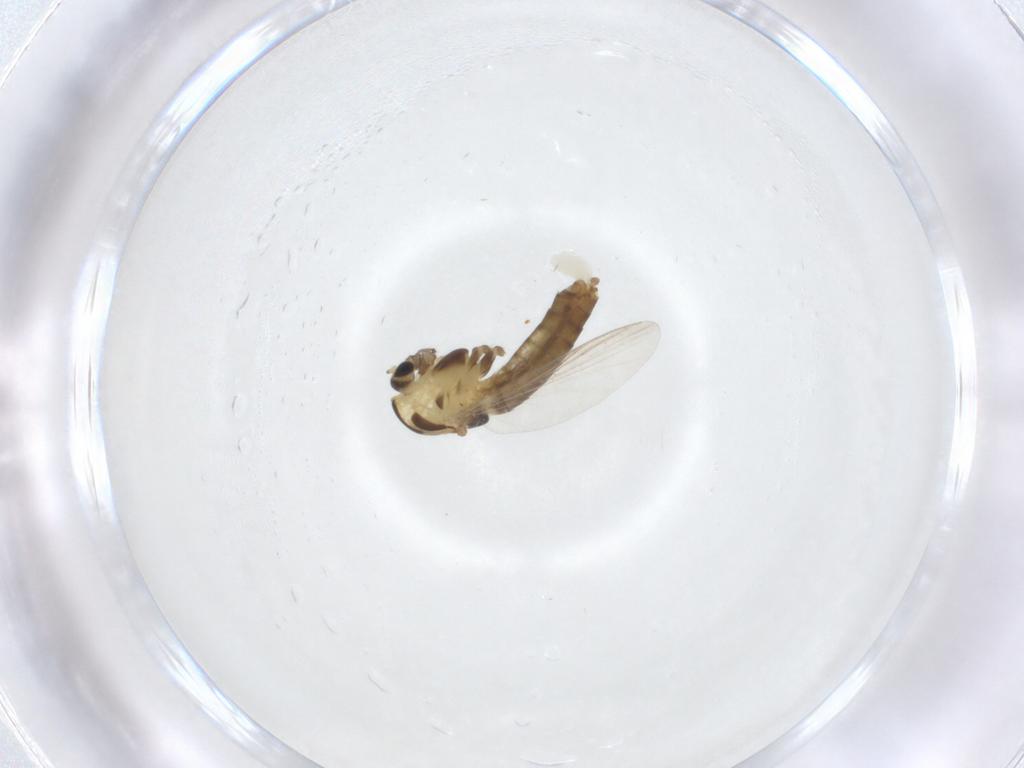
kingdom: Animalia
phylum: Arthropoda
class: Insecta
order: Diptera
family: Chironomidae
